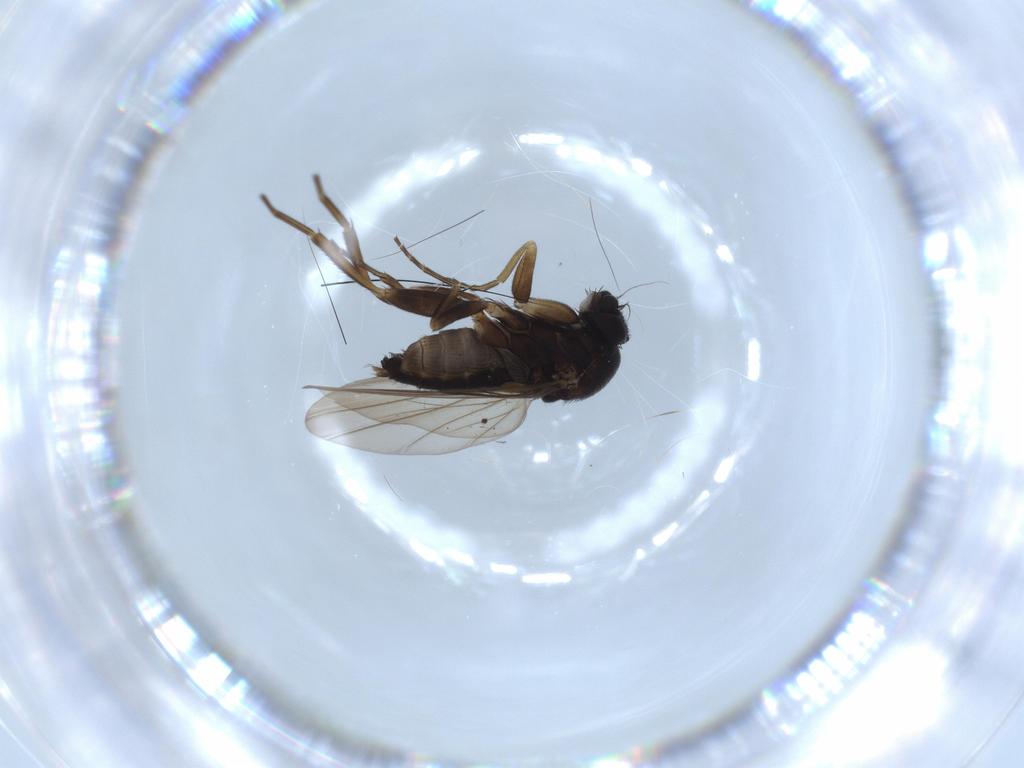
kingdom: Animalia
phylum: Arthropoda
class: Insecta
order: Diptera
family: Phoridae
